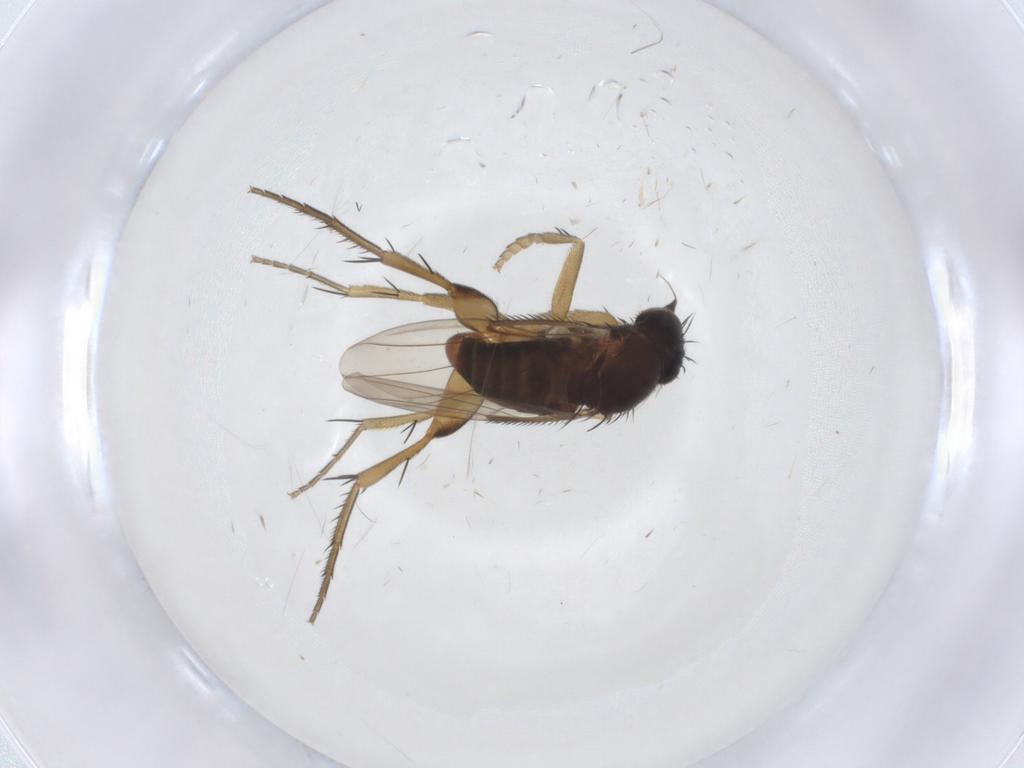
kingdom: Animalia
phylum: Arthropoda
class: Insecta
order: Diptera
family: Phoridae
